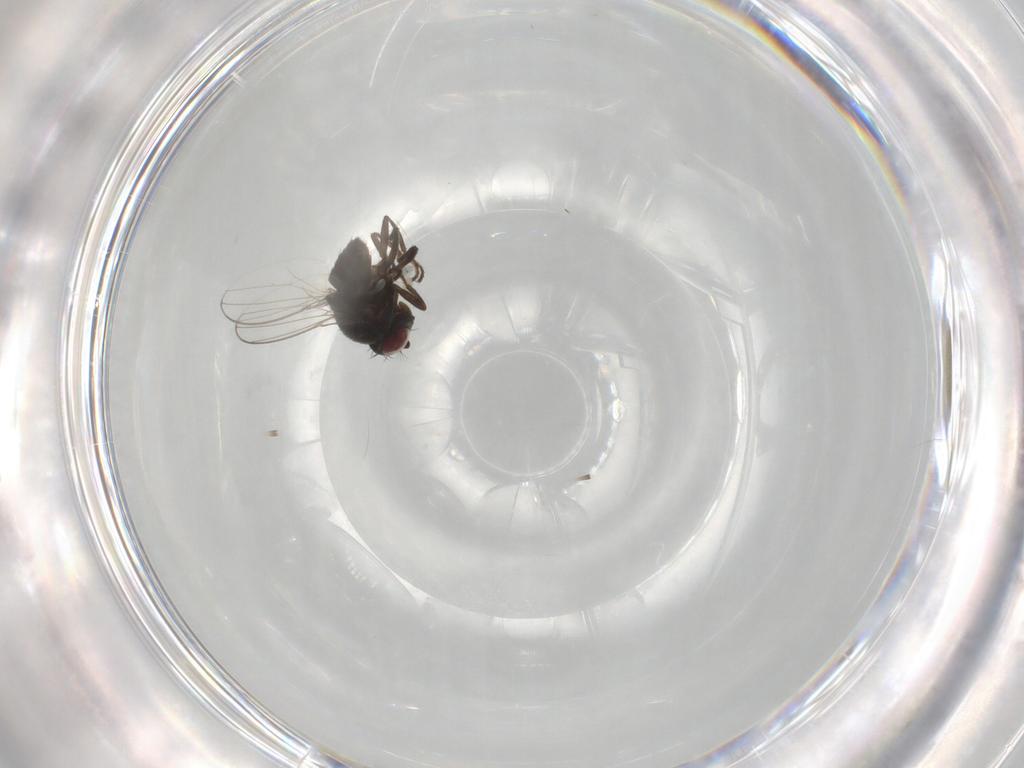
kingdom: Animalia
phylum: Arthropoda
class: Insecta
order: Diptera
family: Ephydridae
